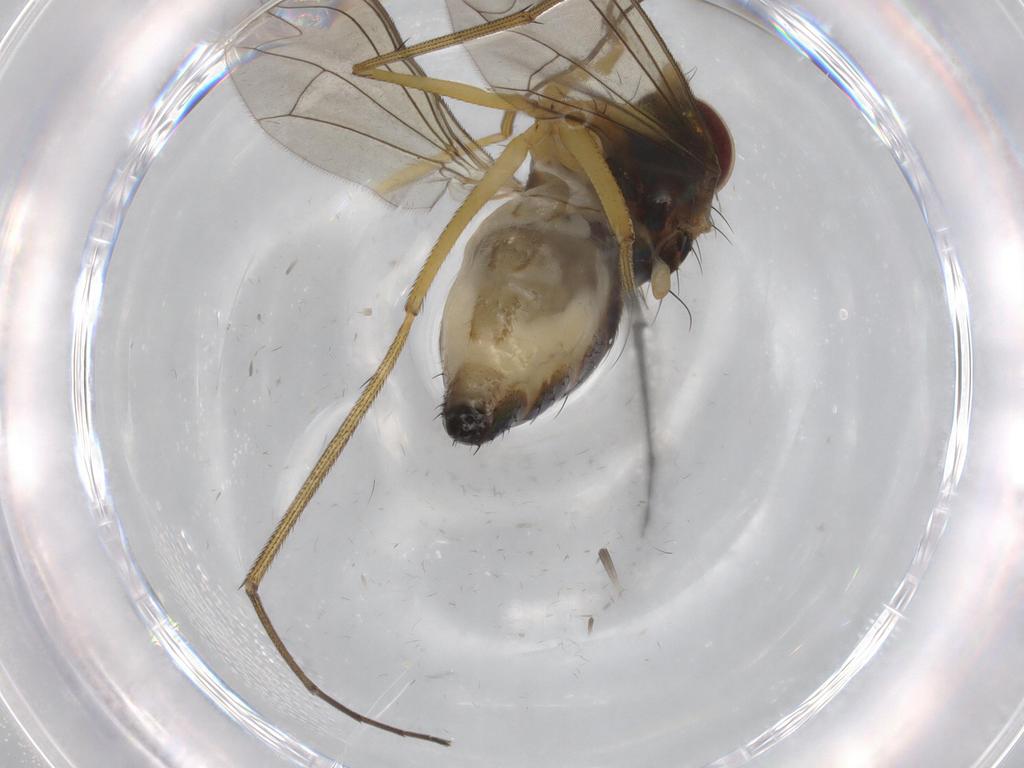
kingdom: Animalia
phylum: Arthropoda
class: Insecta
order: Diptera
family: Dolichopodidae
